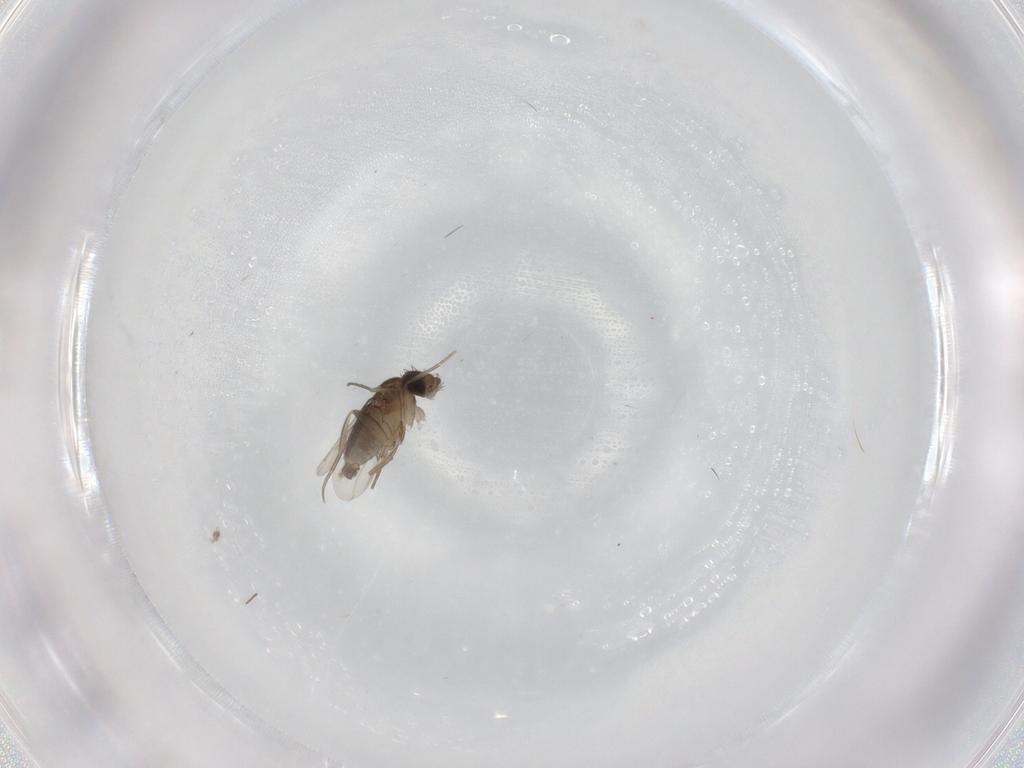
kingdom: Animalia
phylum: Arthropoda
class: Insecta
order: Diptera
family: Phoridae
